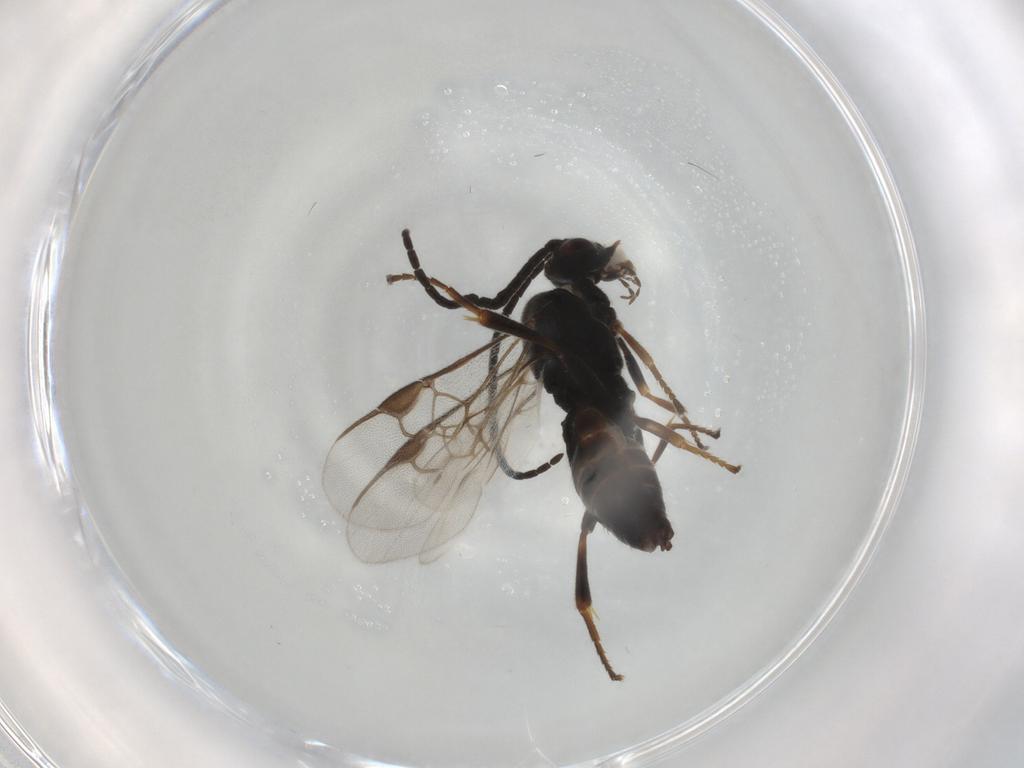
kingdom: Animalia
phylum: Arthropoda
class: Insecta
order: Hymenoptera
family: Braconidae
